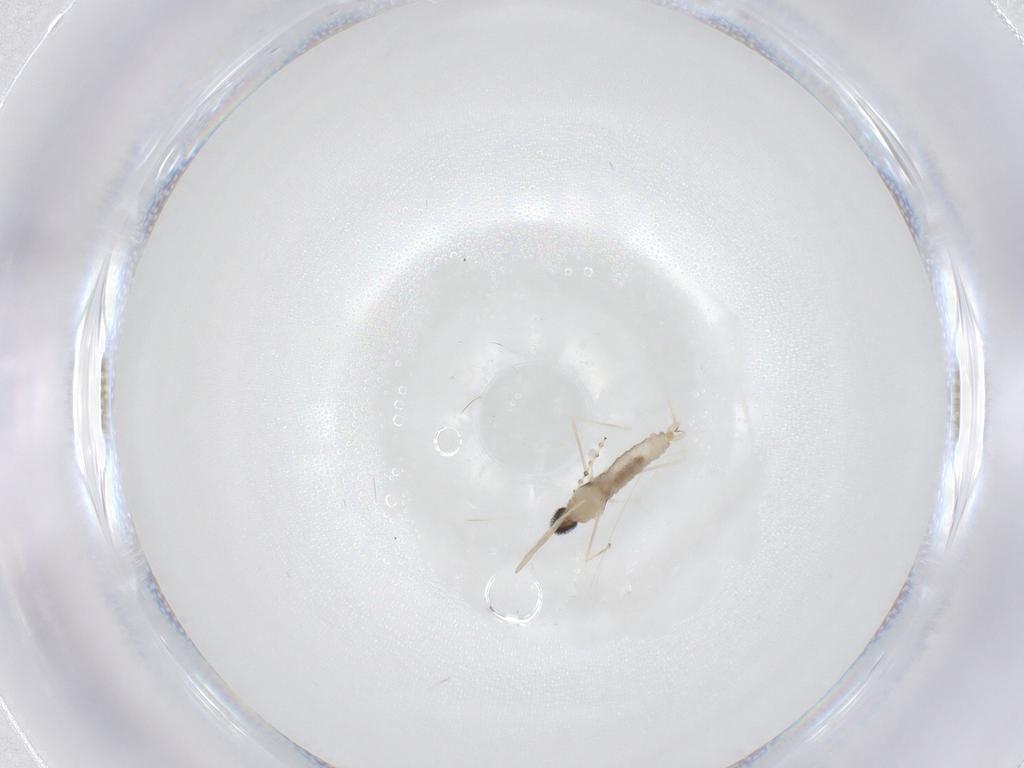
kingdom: Animalia
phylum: Arthropoda
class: Insecta
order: Diptera
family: Cecidomyiidae
